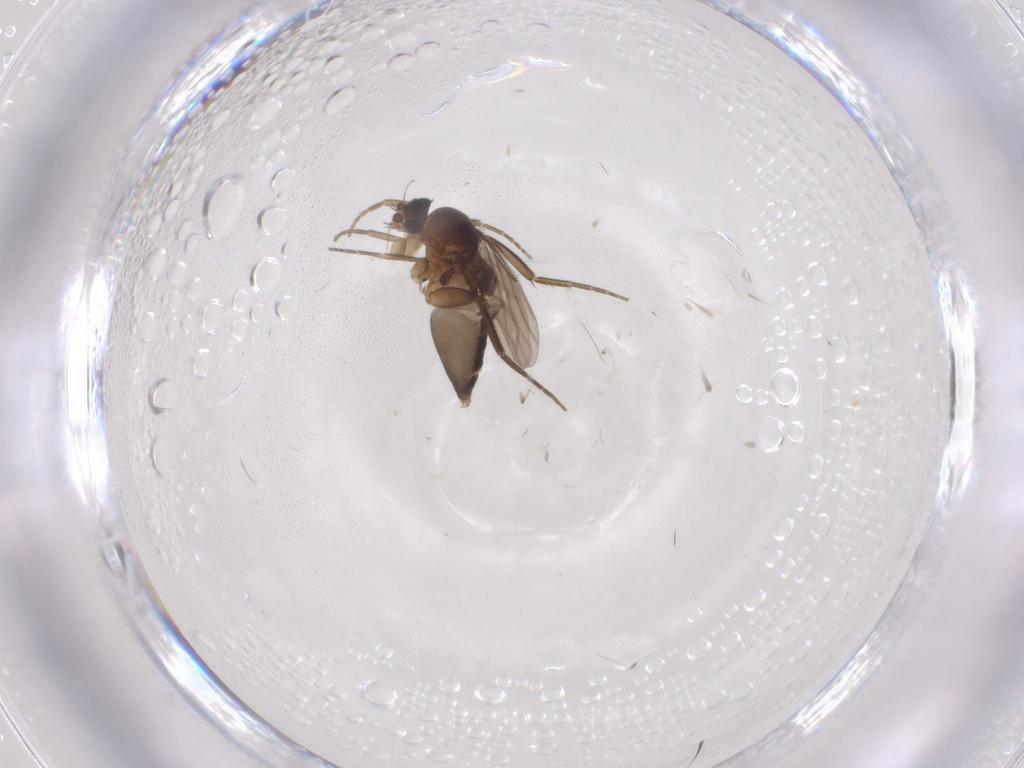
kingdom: Animalia
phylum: Arthropoda
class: Insecta
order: Diptera
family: Phoridae
